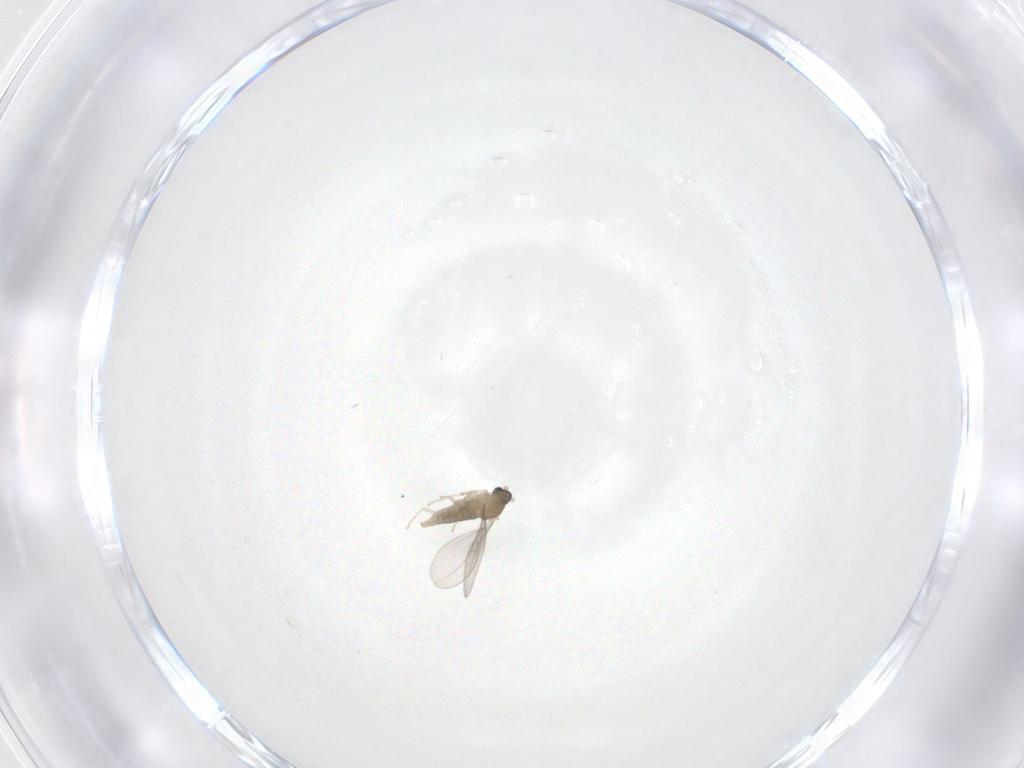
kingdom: Animalia
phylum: Arthropoda
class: Insecta
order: Diptera
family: Cecidomyiidae
